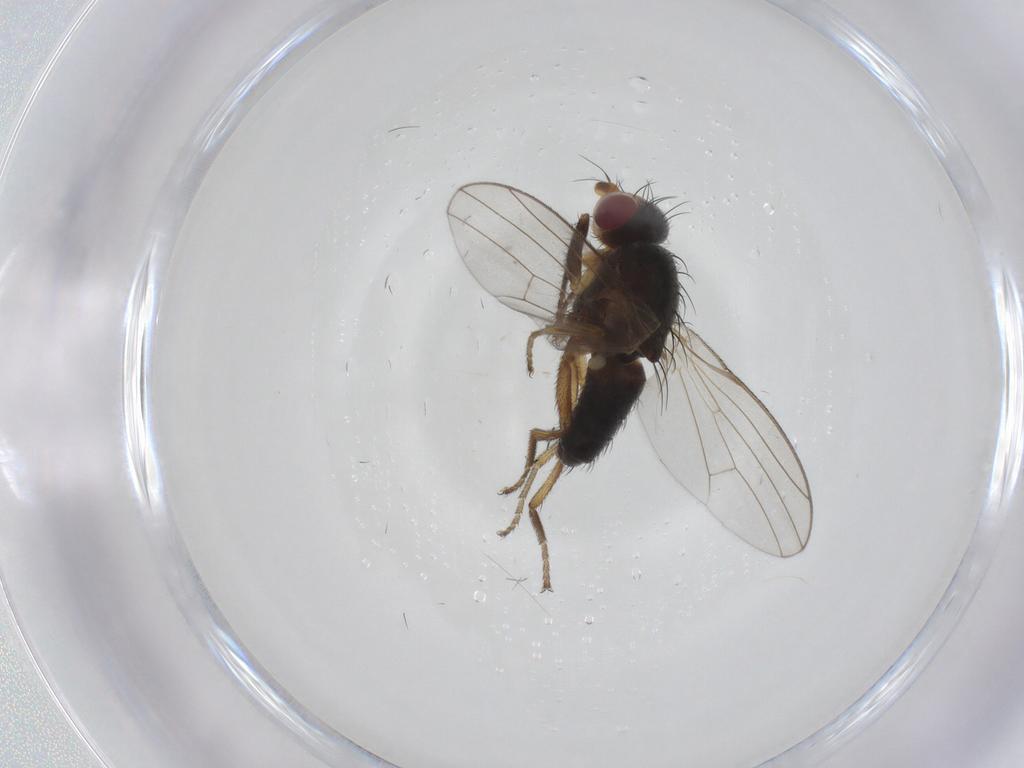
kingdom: Animalia
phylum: Arthropoda
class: Insecta
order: Diptera
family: Heleomyzidae
